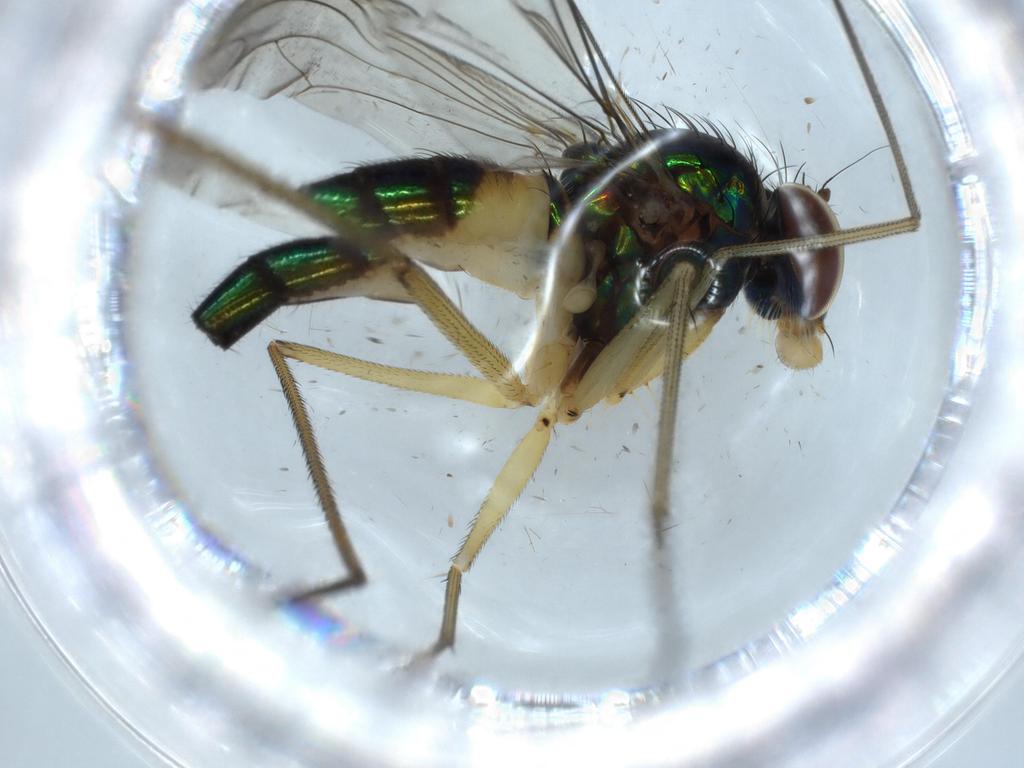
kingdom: Animalia
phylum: Arthropoda
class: Insecta
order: Diptera
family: Dolichopodidae
